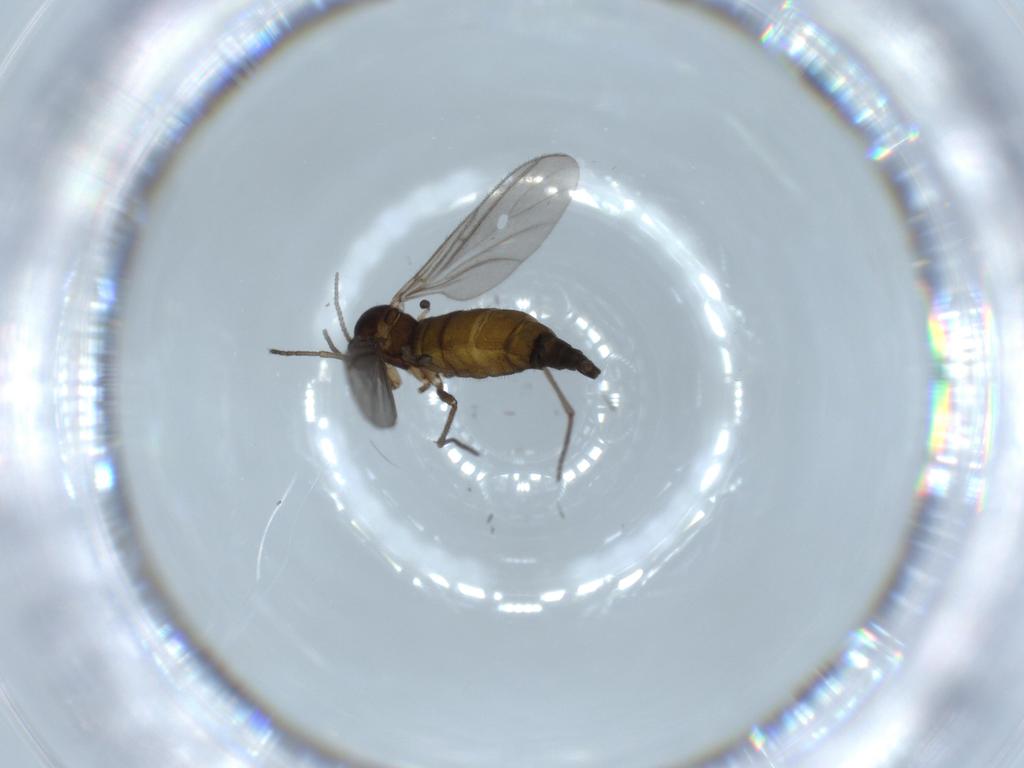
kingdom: Animalia
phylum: Arthropoda
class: Insecta
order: Diptera
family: Sciaridae
